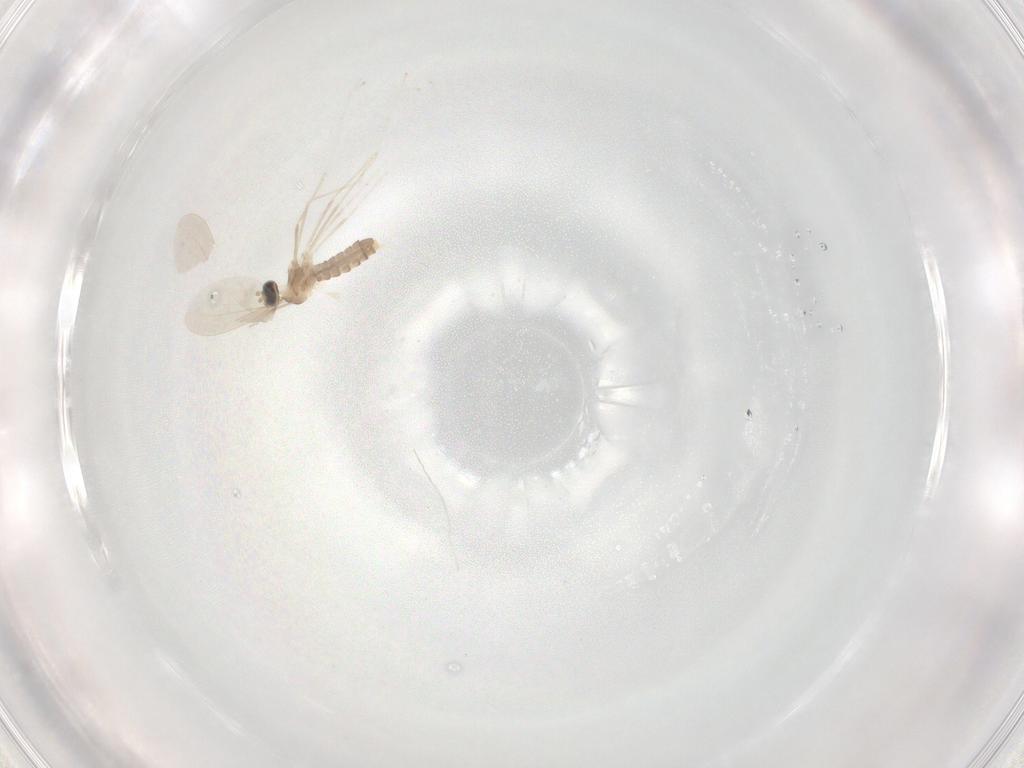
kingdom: Animalia
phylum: Arthropoda
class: Insecta
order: Diptera
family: Cecidomyiidae
